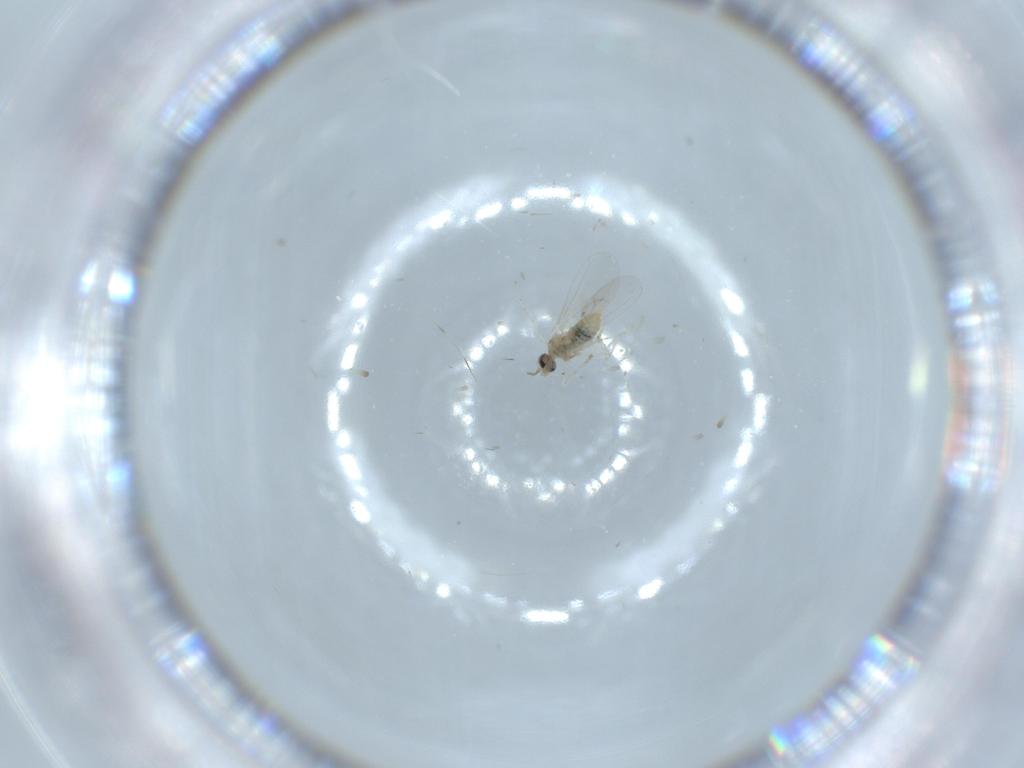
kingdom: Animalia
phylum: Arthropoda
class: Insecta
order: Diptera
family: Cecidomyiidae
